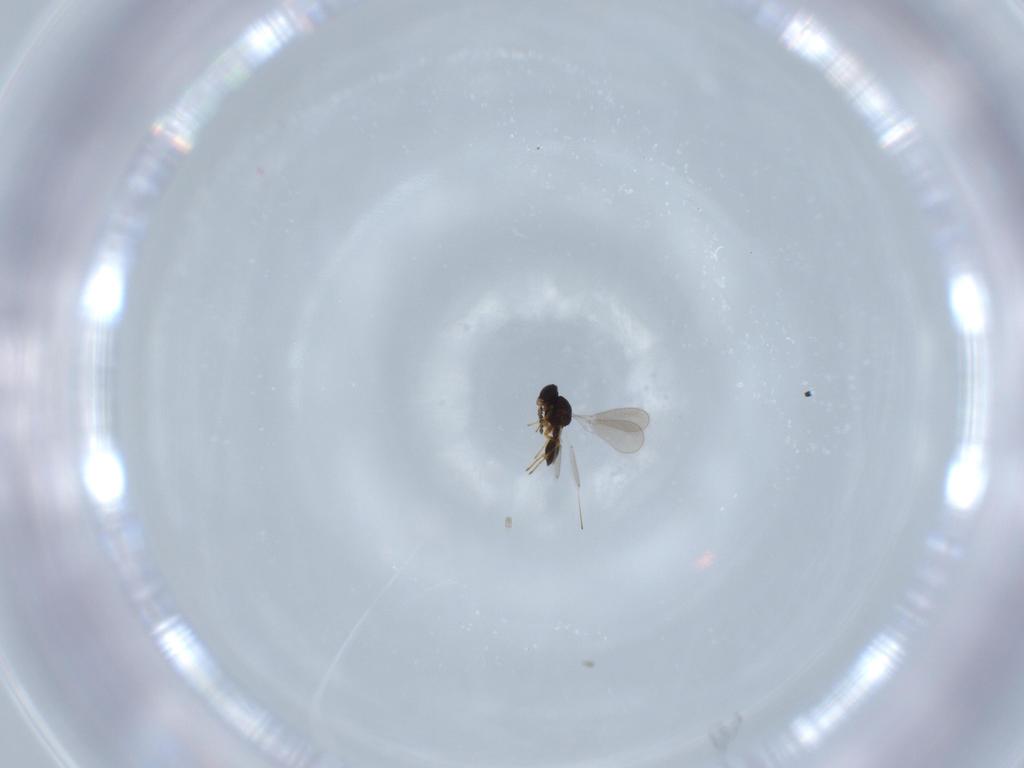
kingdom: Animalia
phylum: Arthropoda
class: Insecta
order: Hymenoptera
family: Platygastridae
